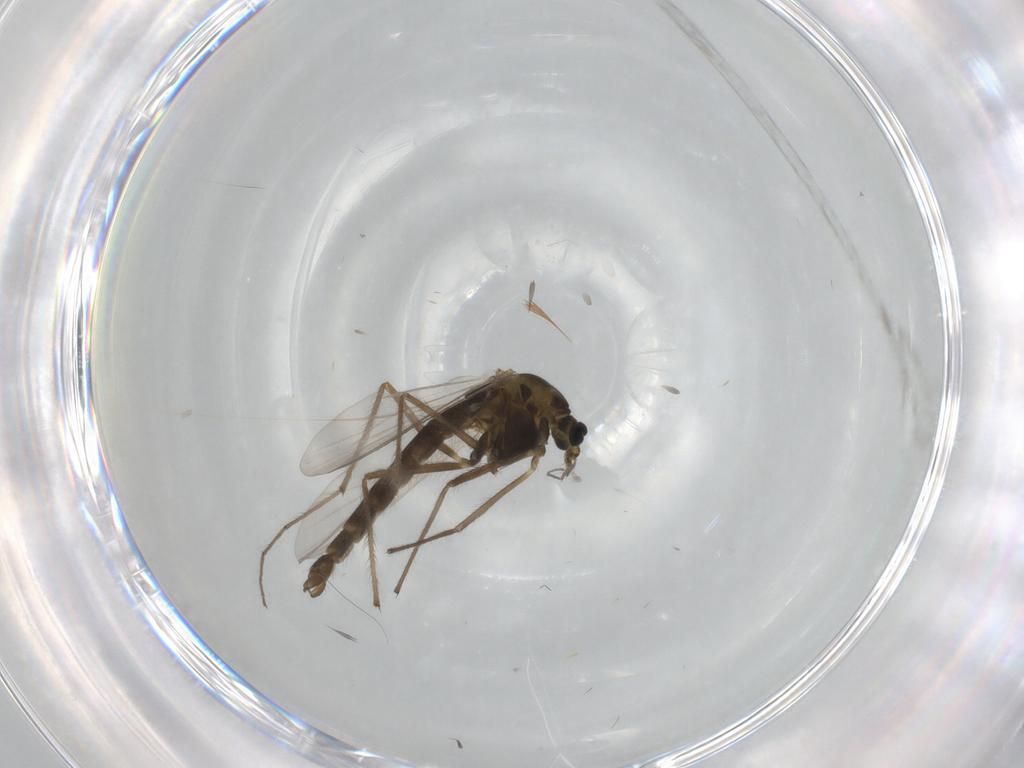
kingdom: Animalia
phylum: Arthropoda
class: Insecta
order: Diptera
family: Chironomidae
